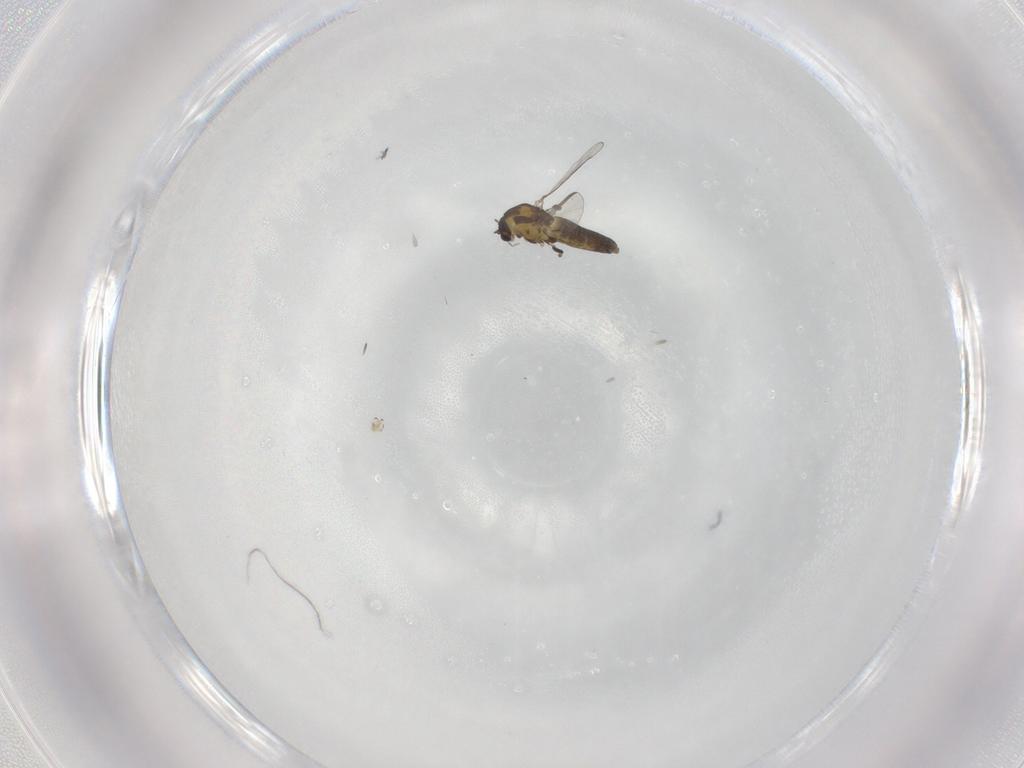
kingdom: Animalia
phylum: Arthropoda
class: Insecta
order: Diptera
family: Chironomidae
